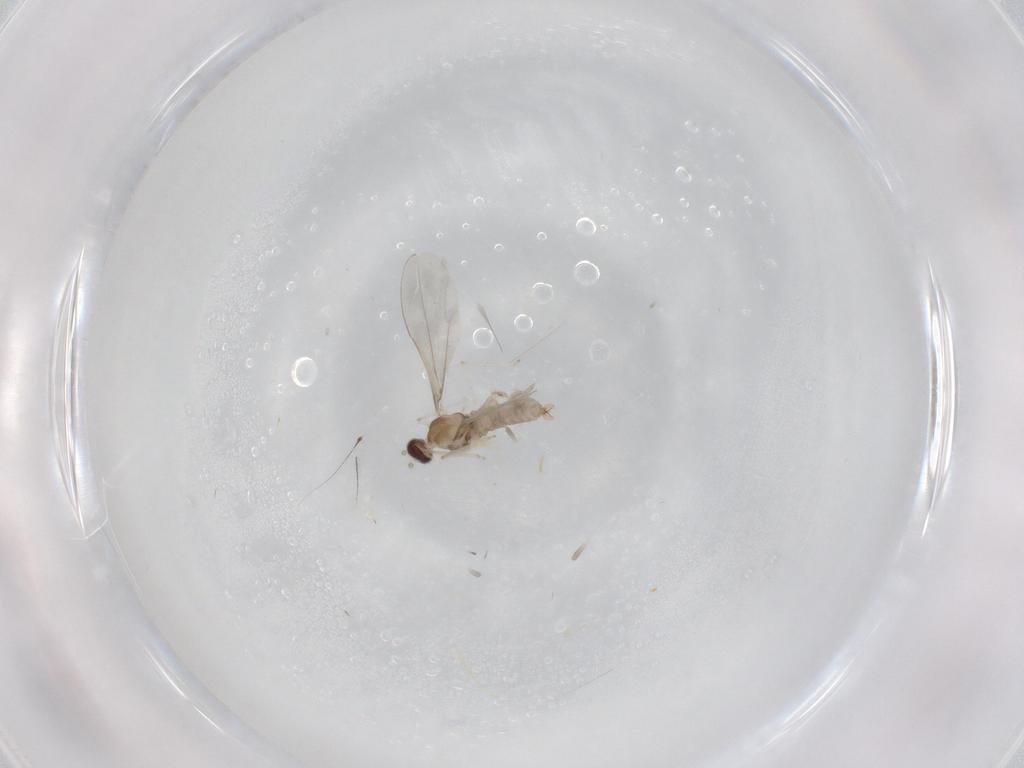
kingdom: Animalia
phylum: Arthropoda
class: Insecta
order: Diptera
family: Cecidomyiidae
